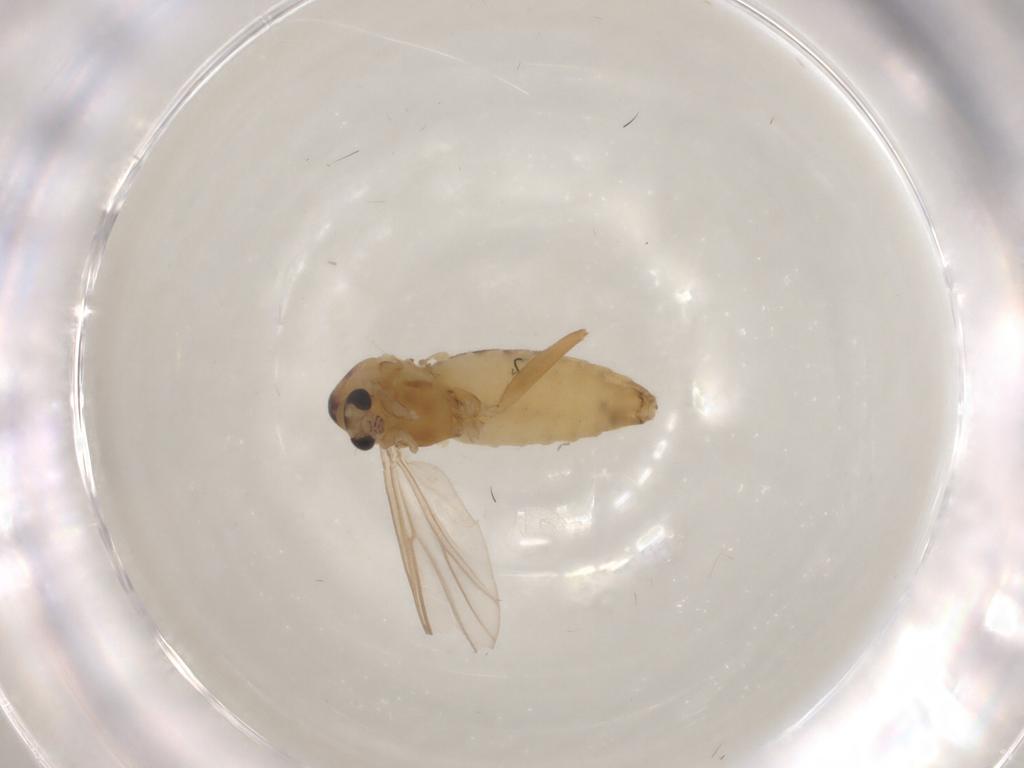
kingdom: Animalia
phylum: Arthropoda
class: Insecta
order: Diptera
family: Chironomidae
